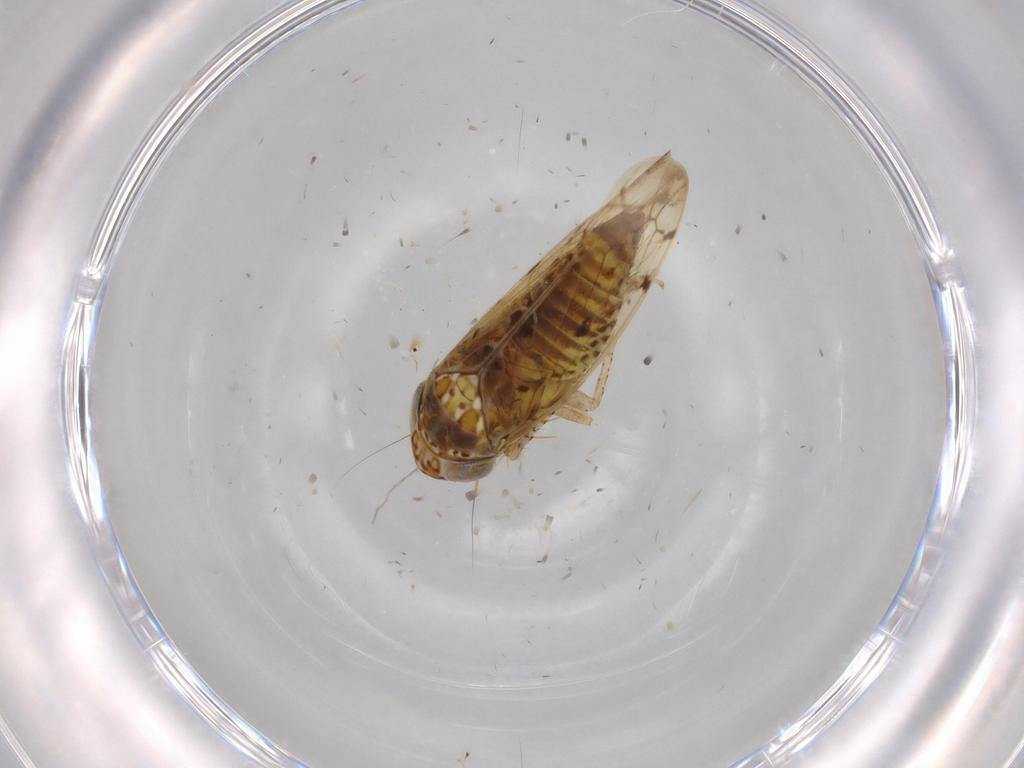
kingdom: Animalia
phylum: Arthropoda
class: Insecta
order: Hemiptera
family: Cicadellidae
